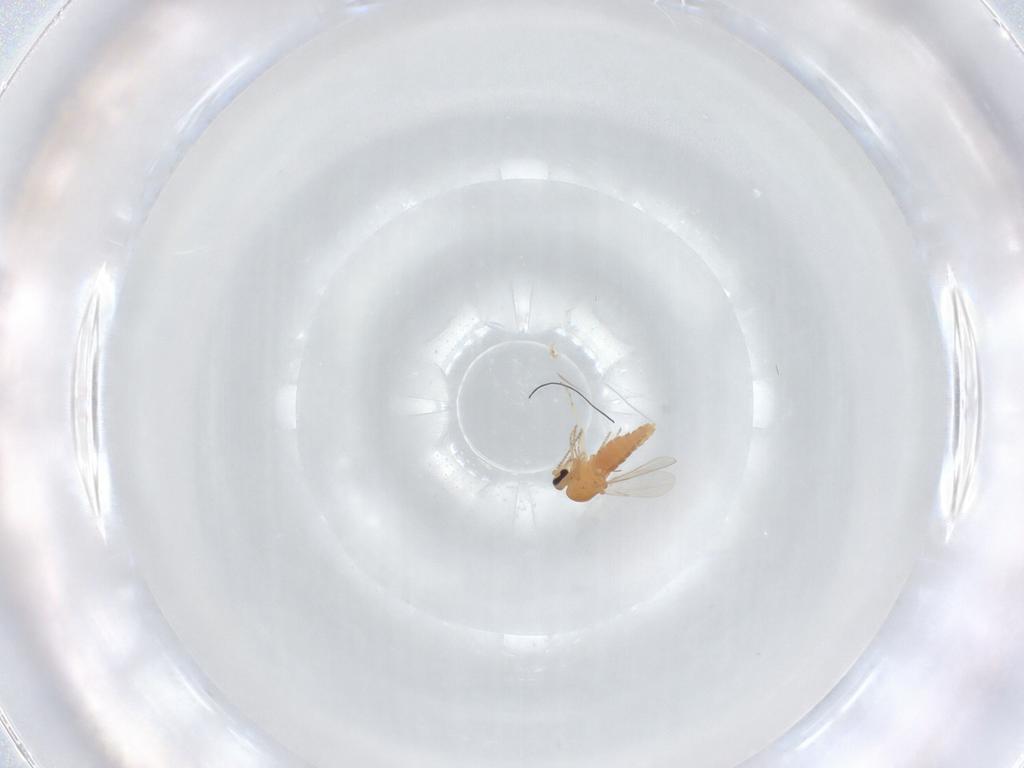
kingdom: Animalia
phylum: Arthropoda
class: Insecta
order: Diptera
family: Ceratopogonidae
